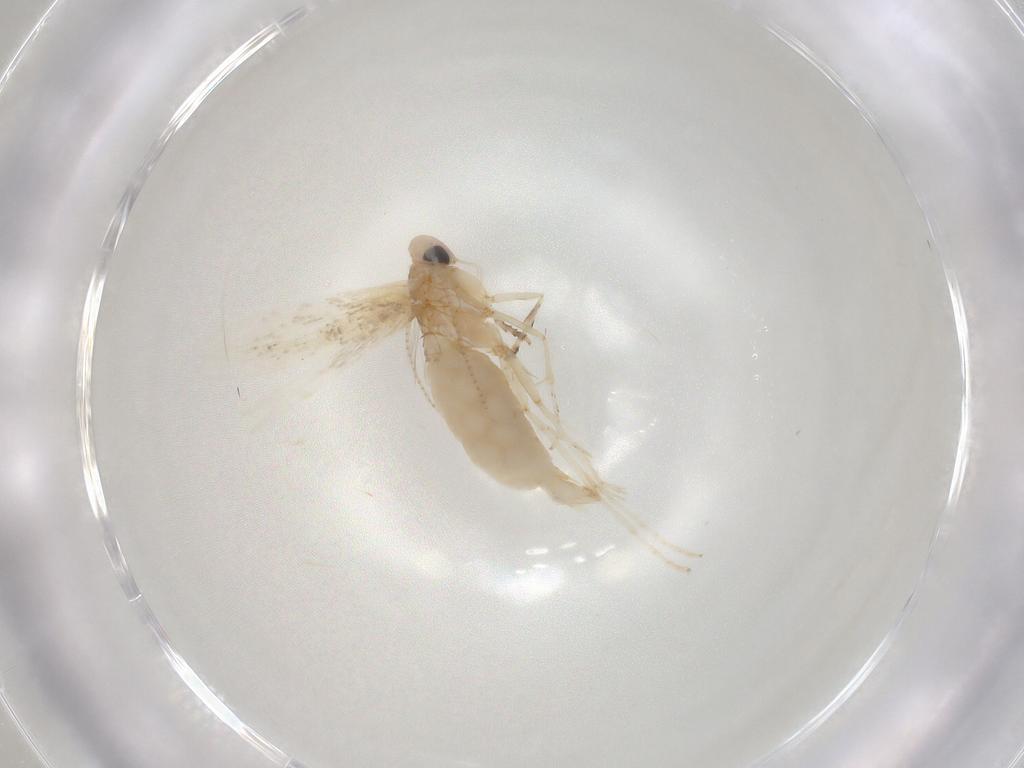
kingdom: Animalia
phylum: Arthropoda
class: Insecta
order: Lepidoptera
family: Gracillariidae
